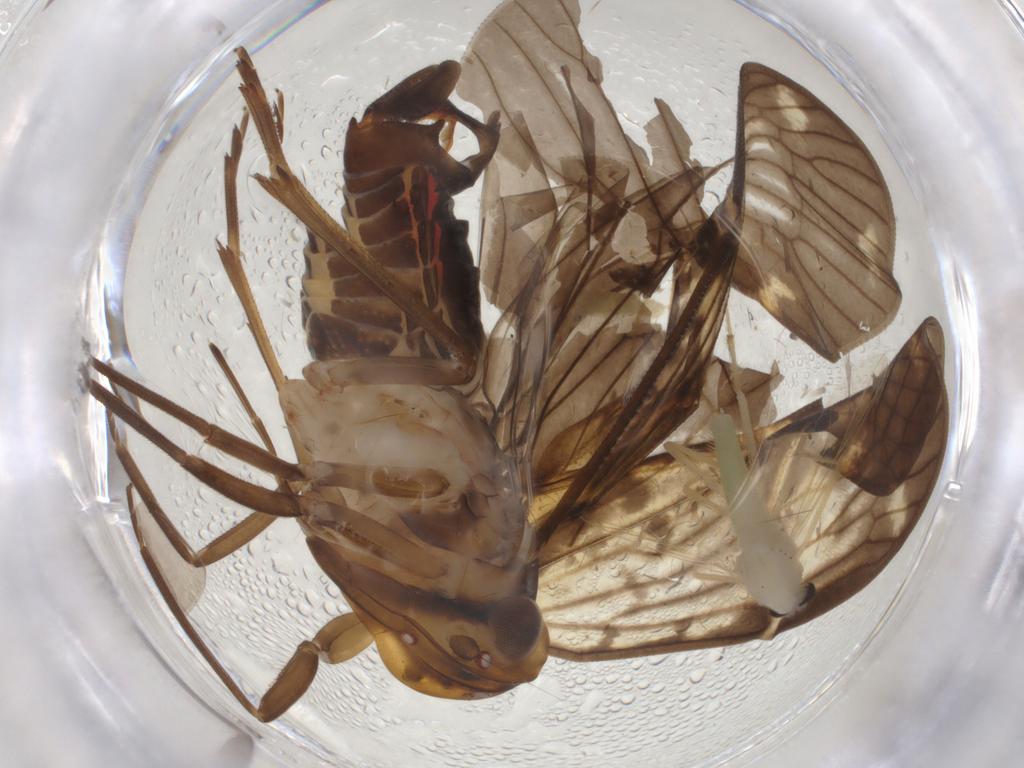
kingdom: Animalia
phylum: Arthropoda
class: Insecta
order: Hemiptera
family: Cixiidae
